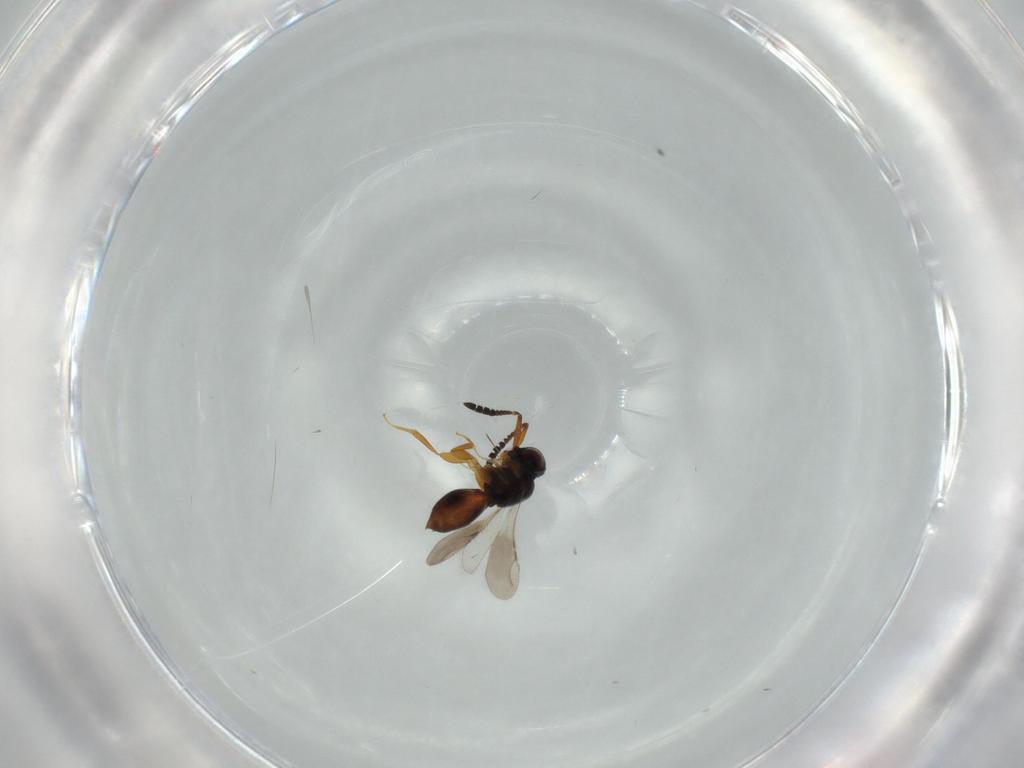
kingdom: Animalia
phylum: Arthropoda
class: Insecta
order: Hymenoptera
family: Ceraphronidae
